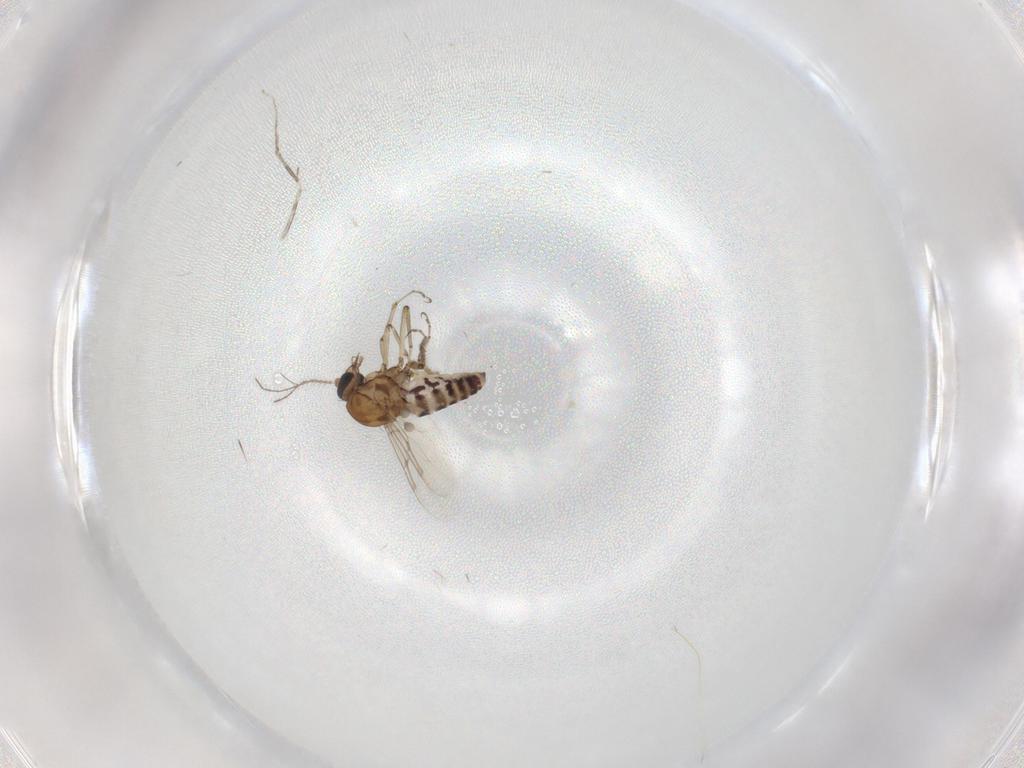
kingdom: Animalia
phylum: Arthropoda
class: Insecta
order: Diptera
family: Ceratopogonidae
